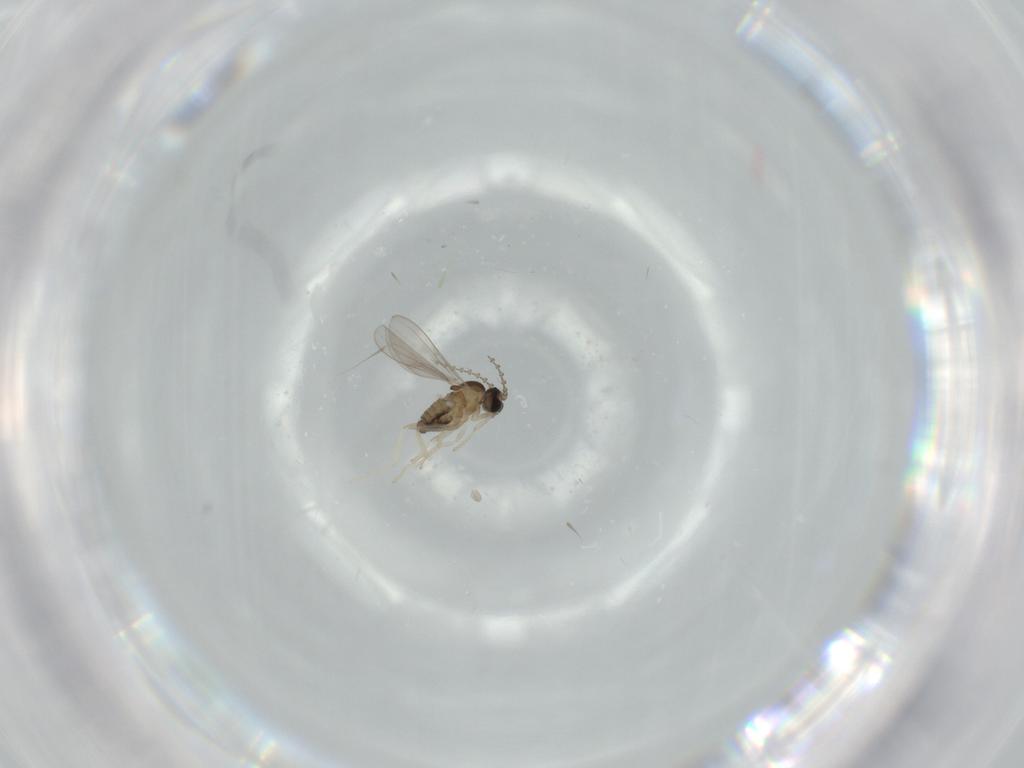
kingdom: Animalia
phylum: Arthropoda
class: Insecta
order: Diptera
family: Cecidomyiidae
